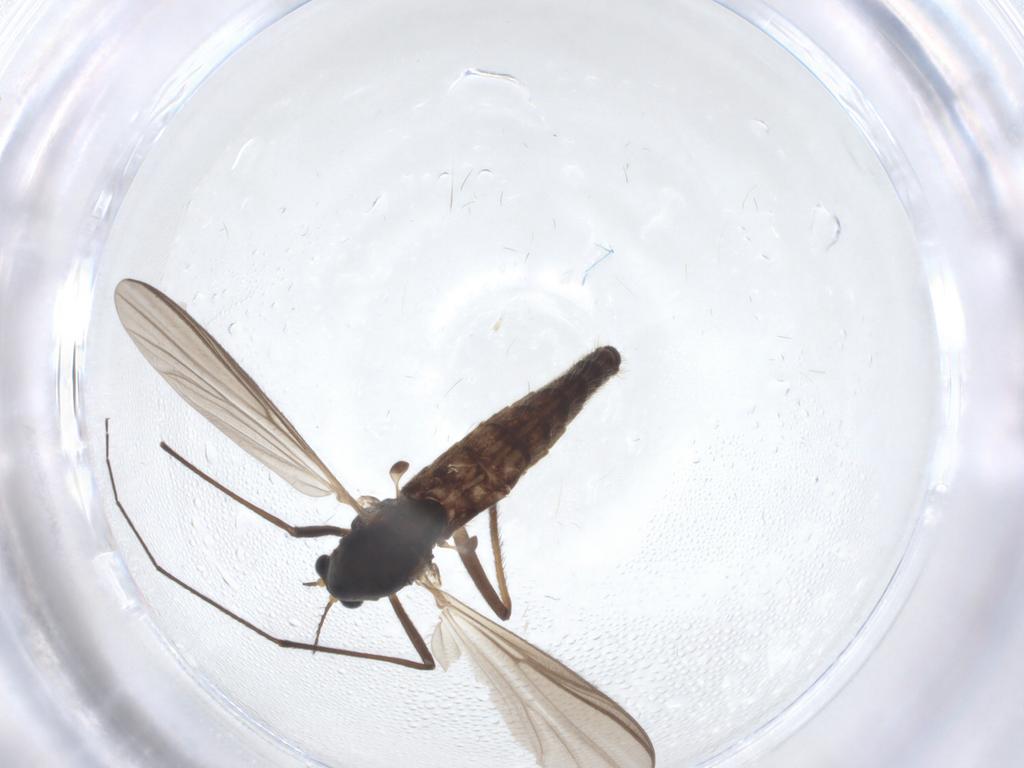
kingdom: Animalia
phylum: Arthropoda
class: Insecta
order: Diptera
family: Chironomidae
